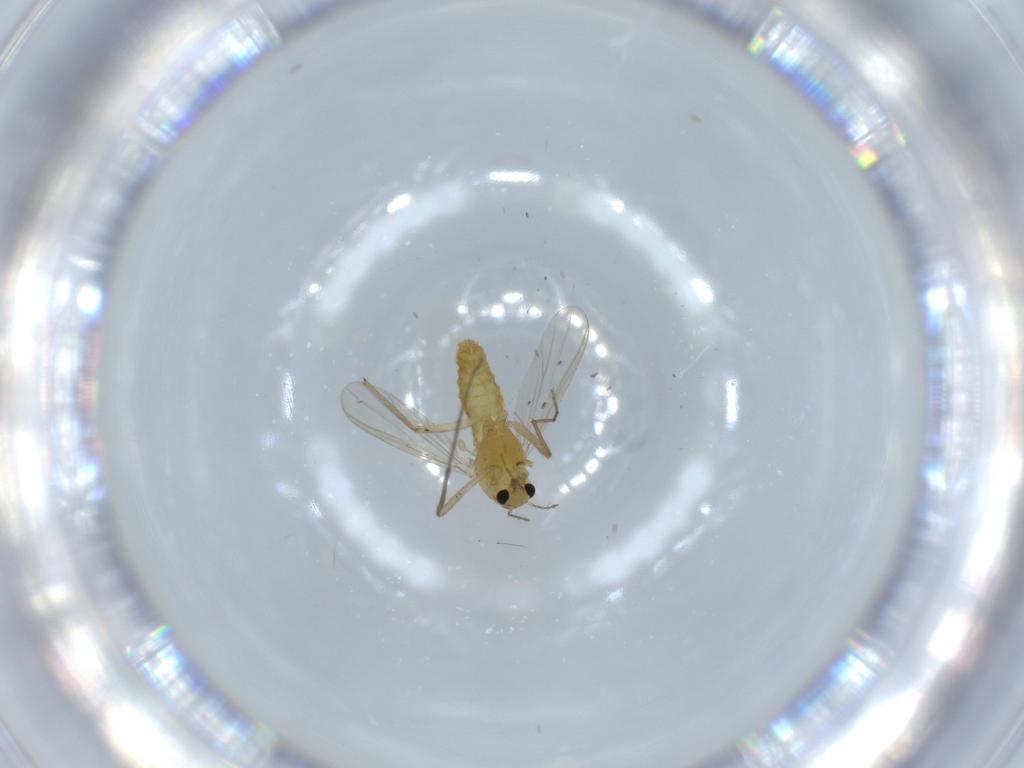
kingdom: Animalia
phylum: Arthropoda
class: Insecta
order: Diptera
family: Chironomidae
